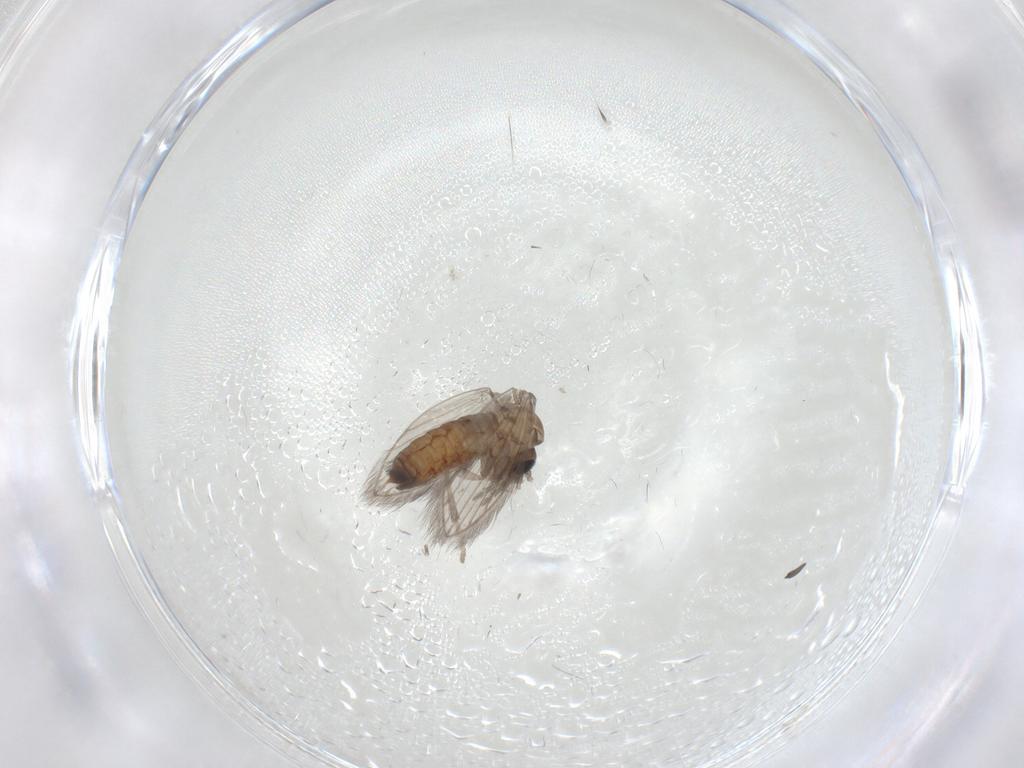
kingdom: Animalia
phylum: Arthropoda
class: Insecta
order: Diptera
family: Psychodidae
